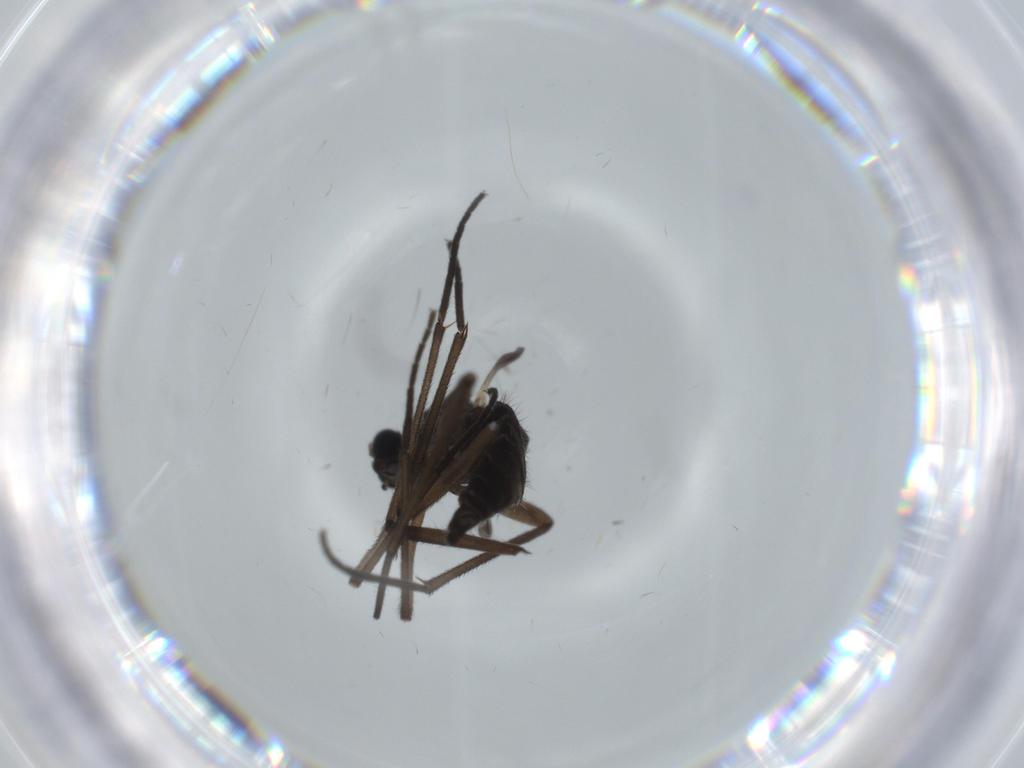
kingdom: Animalia
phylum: Arthropoda
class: Insecta
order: Diptera
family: Sciaridae
